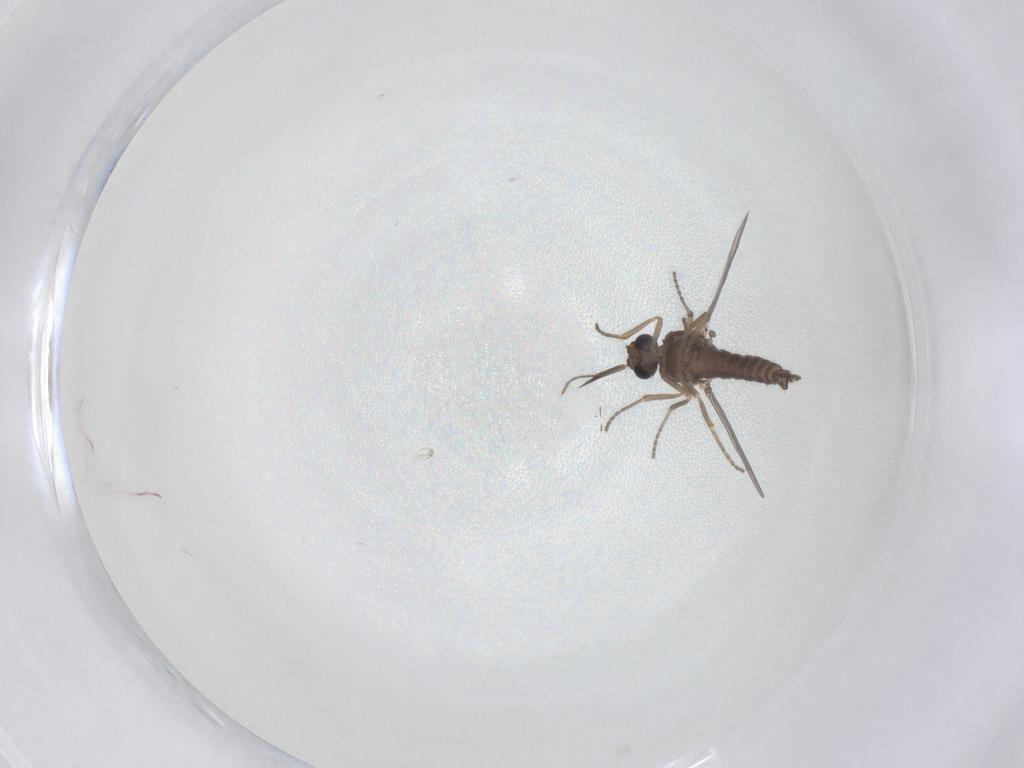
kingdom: Animalia
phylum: Arthropoda
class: Insecta
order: Diptera
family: Ceratopogonidae
